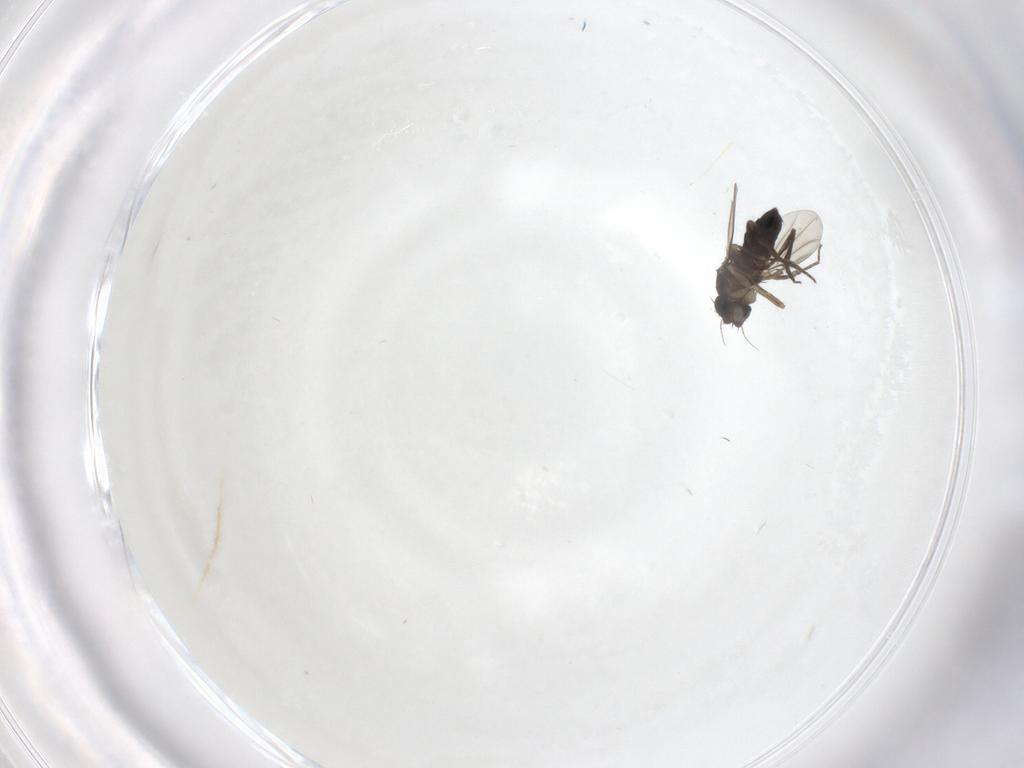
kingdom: Animalia
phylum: Arthropoda
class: Insecta
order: Diptera
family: Phoridae
